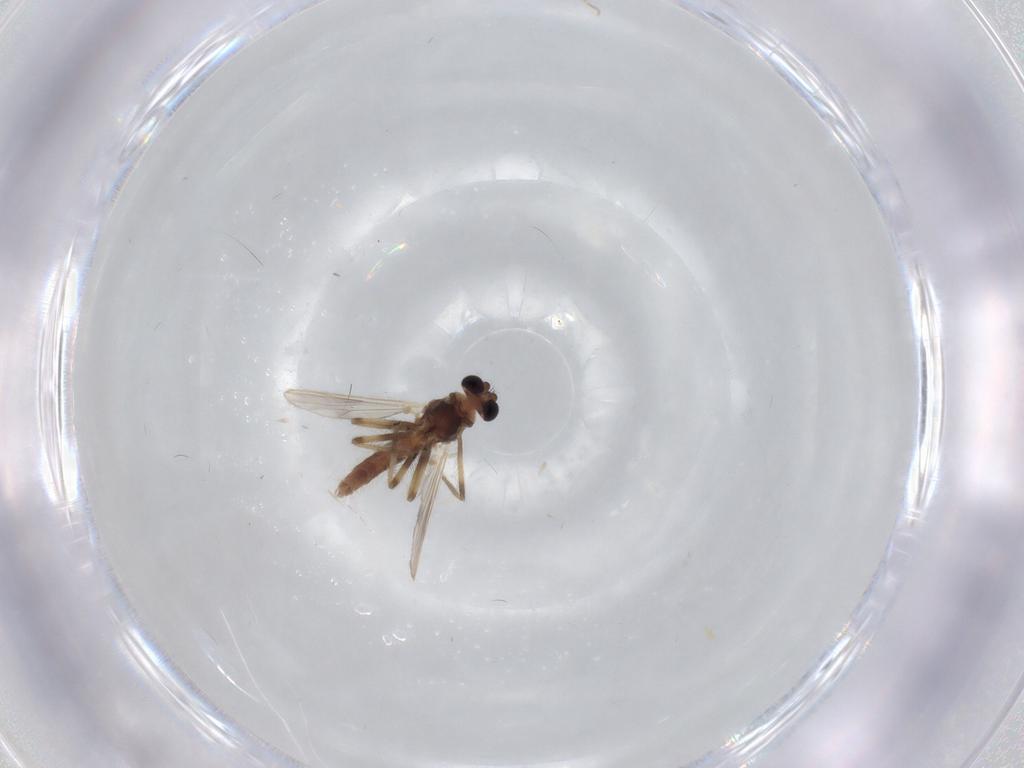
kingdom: Animalia
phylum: Arthropoda
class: Insecta
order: Diptera
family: Chironomidae
